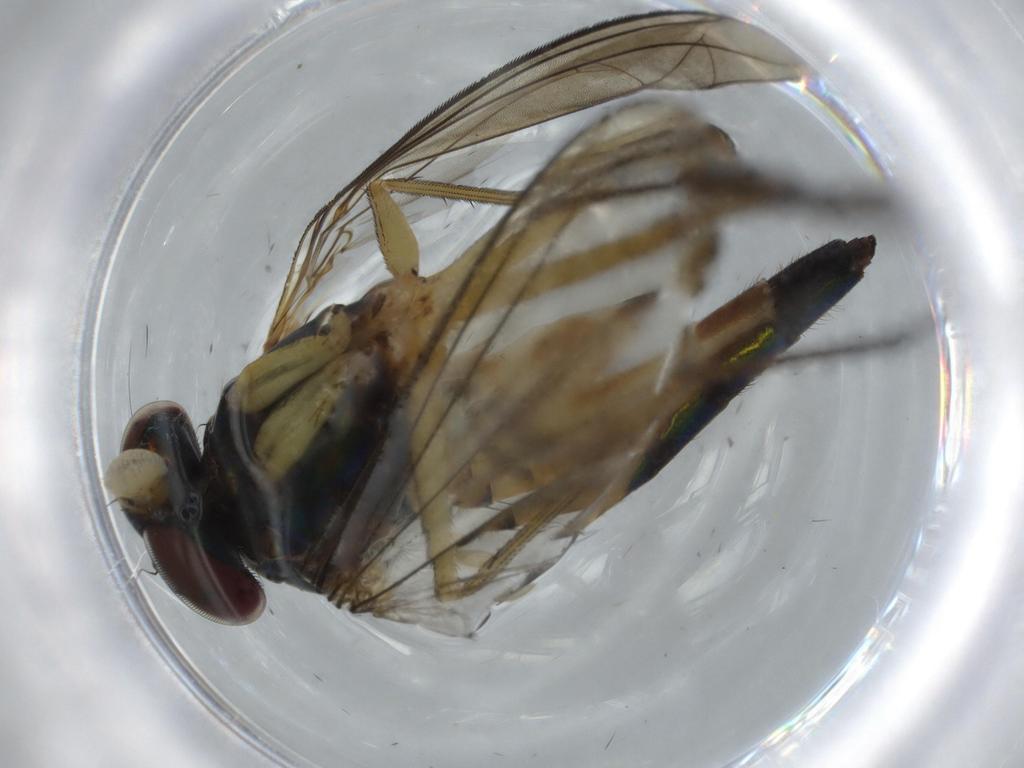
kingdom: Animalia
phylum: Arthropoda
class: Insecta
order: Diptera
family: Dolichopodidae
